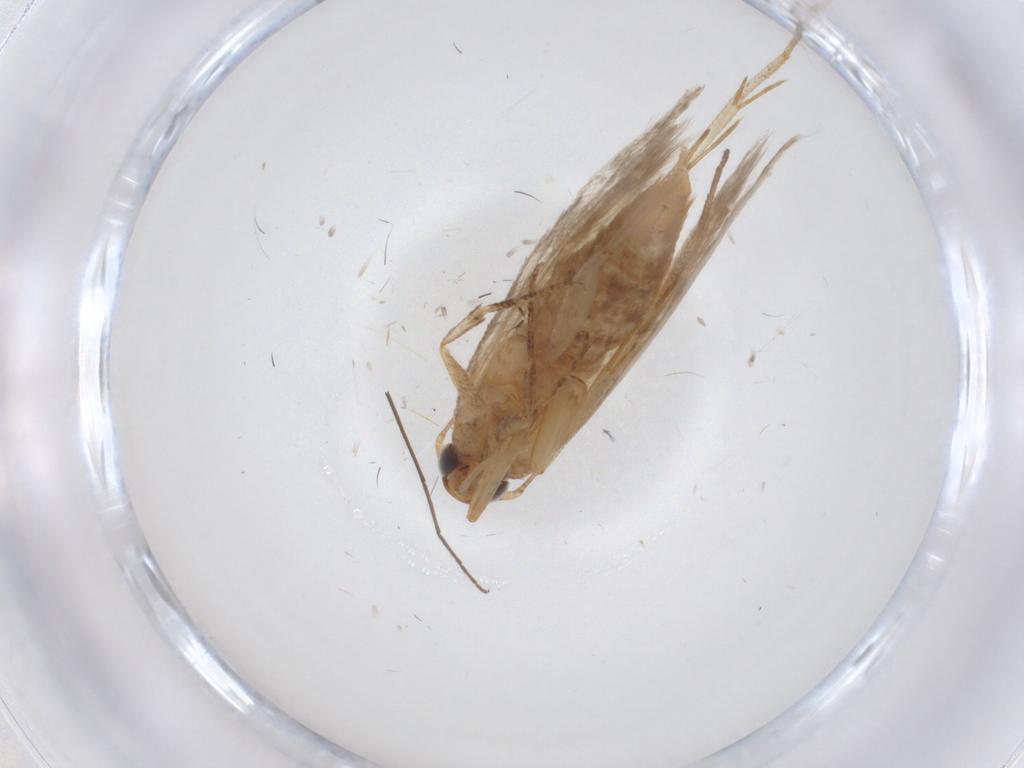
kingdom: Animalia
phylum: Arthropoda
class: Insecta
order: Lepidoptera
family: Gelechiidae
